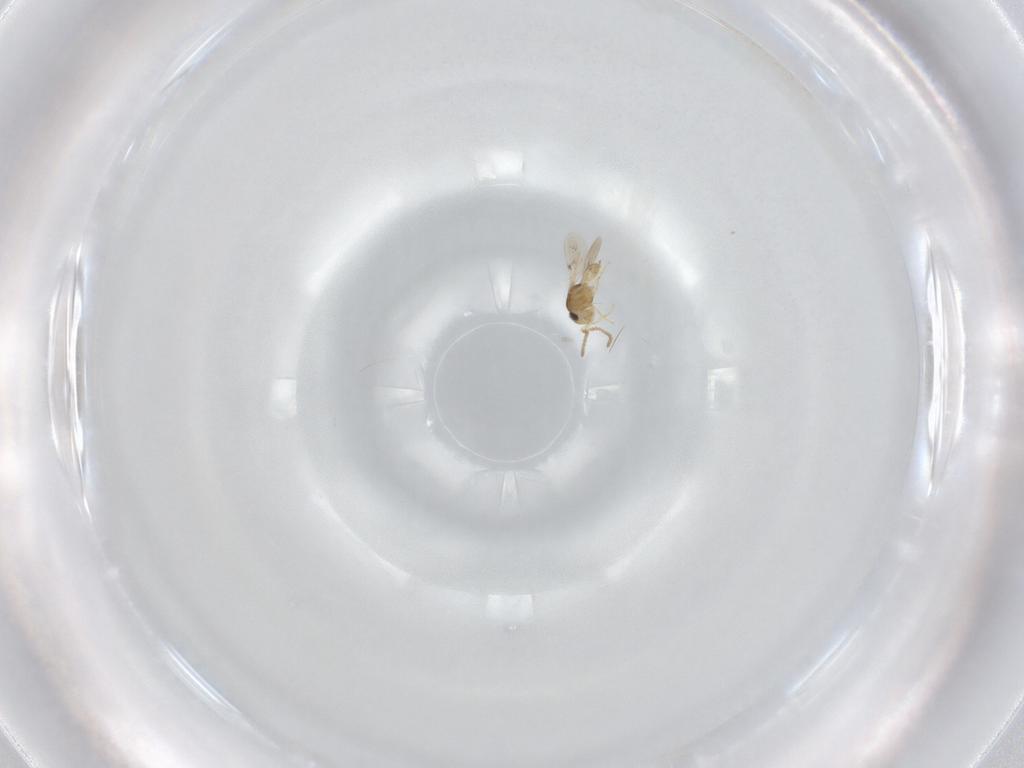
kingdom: Animalia
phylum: Arthropoda
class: Insecta
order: Hymenoptera
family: Scelionidae
